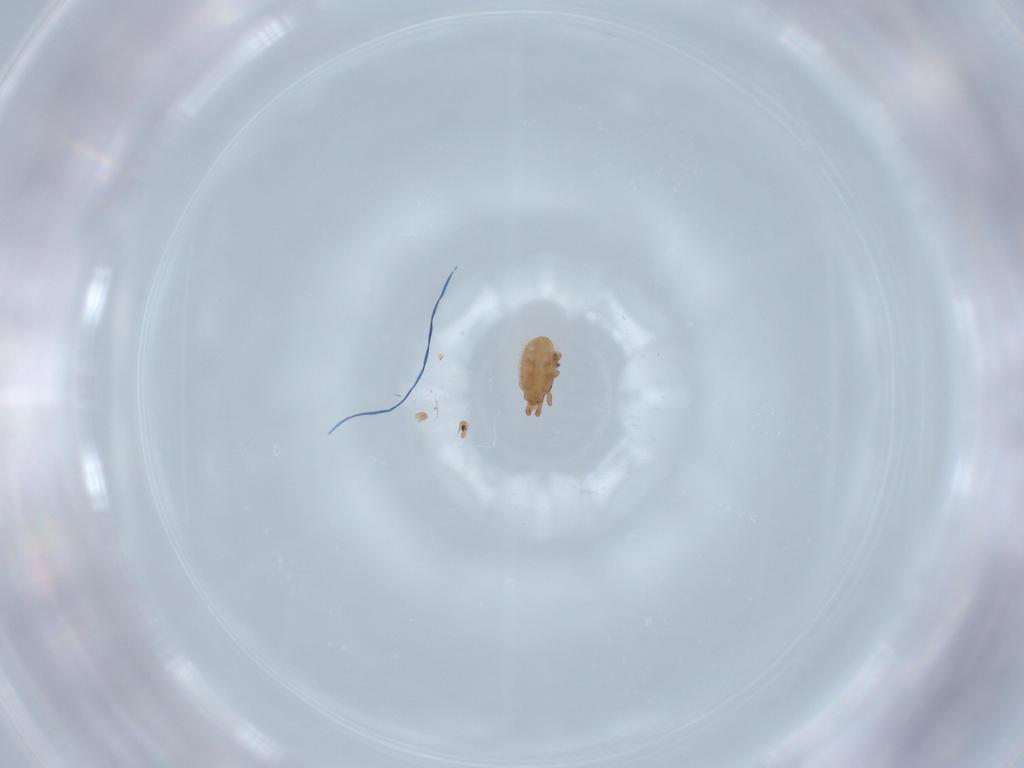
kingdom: Animalia
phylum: Arthropoda
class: Arachnida
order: Mesostigmata
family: Dinychidae
